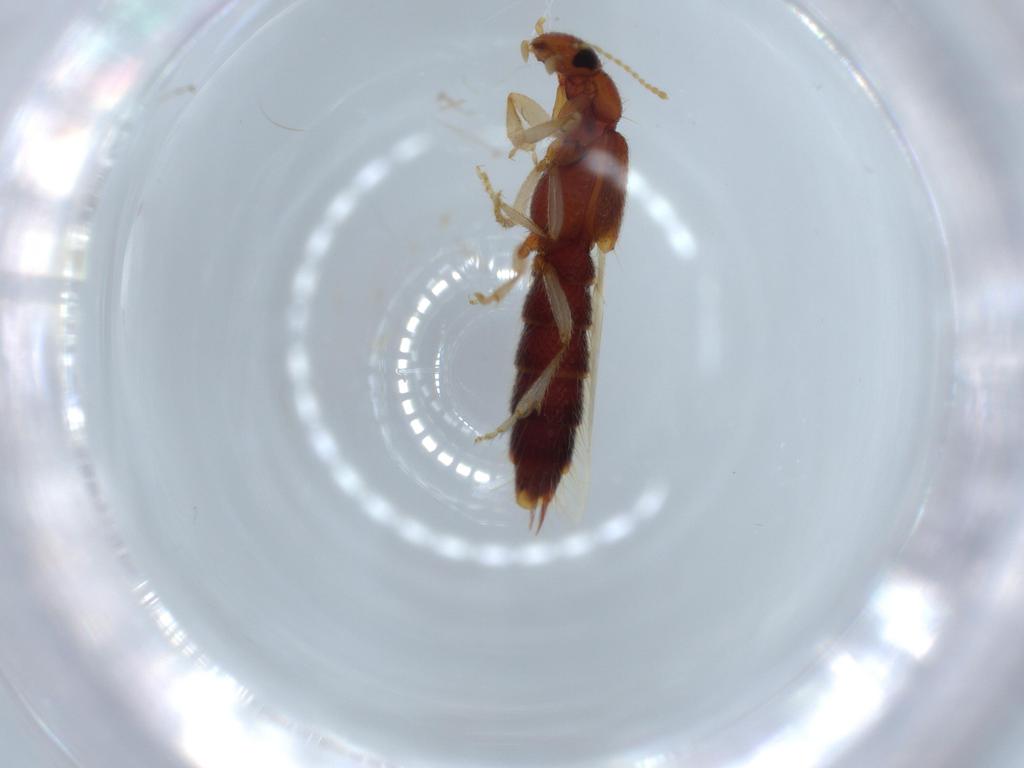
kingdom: Animalia
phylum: Arthropoda
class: Insecta
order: Coleoptera
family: Staphylinidae
